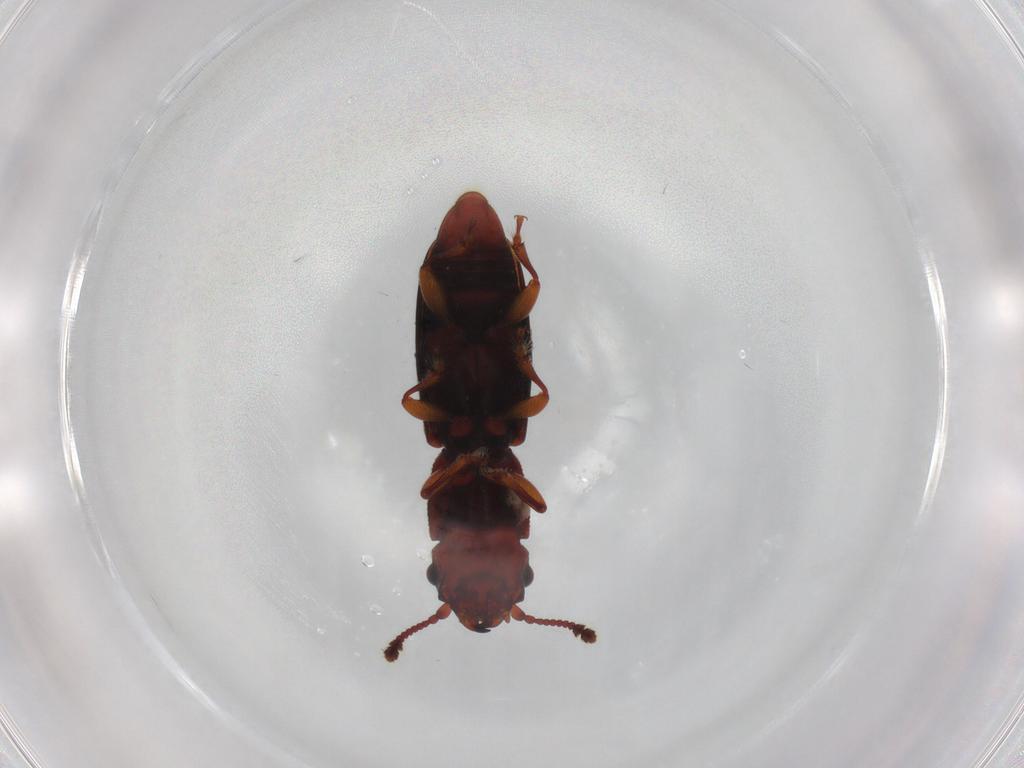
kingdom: Animalia
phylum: Arthropoda
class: Insecta
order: Coleoptera
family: Monotomidae
